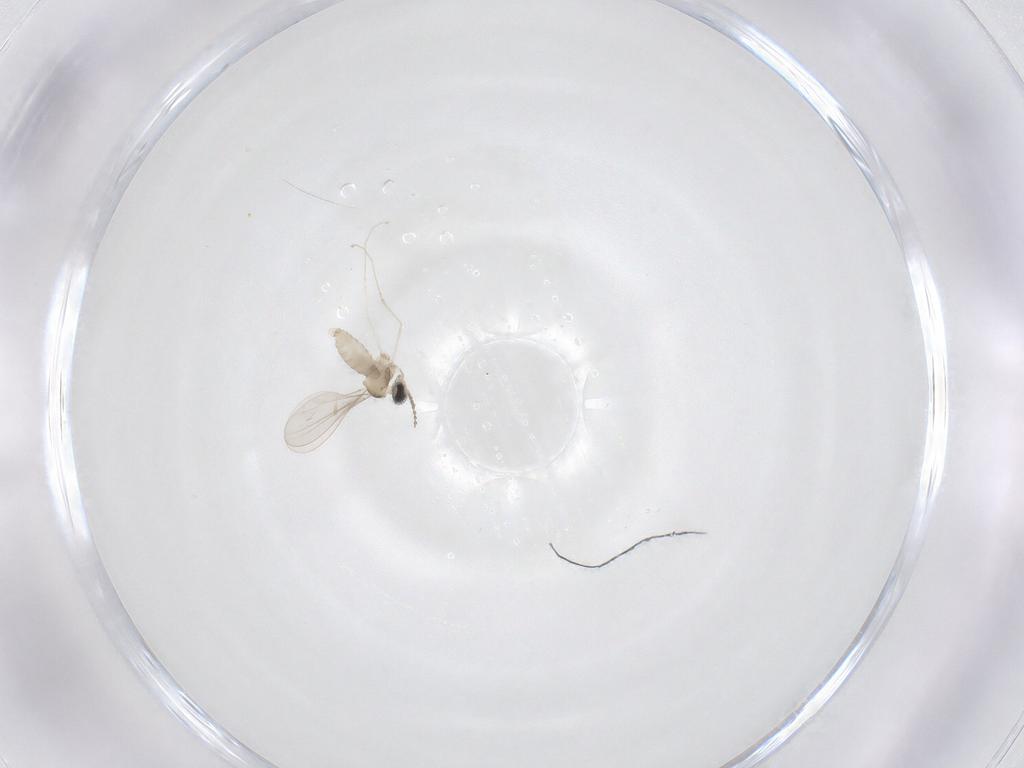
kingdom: Animalia
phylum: Arthropoda
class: Insecta
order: Diptera
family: Cecidomyiidae
